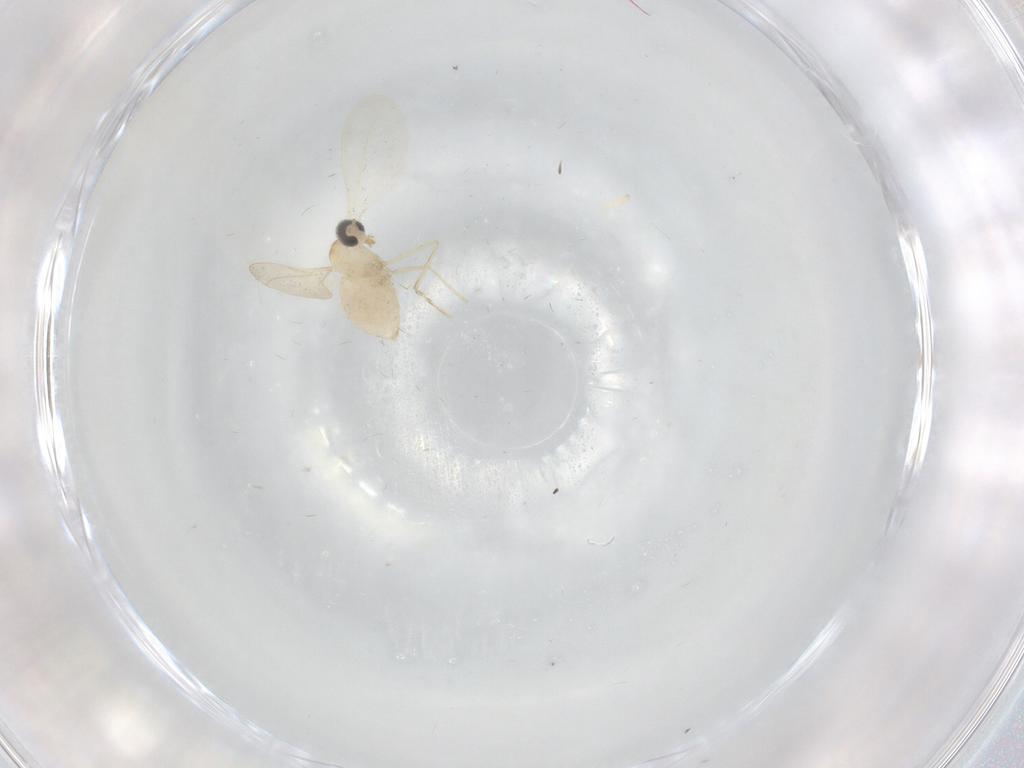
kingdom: Animalia
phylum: Arthropoda
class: Insecta
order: Diptera
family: Cecidomyiidae
